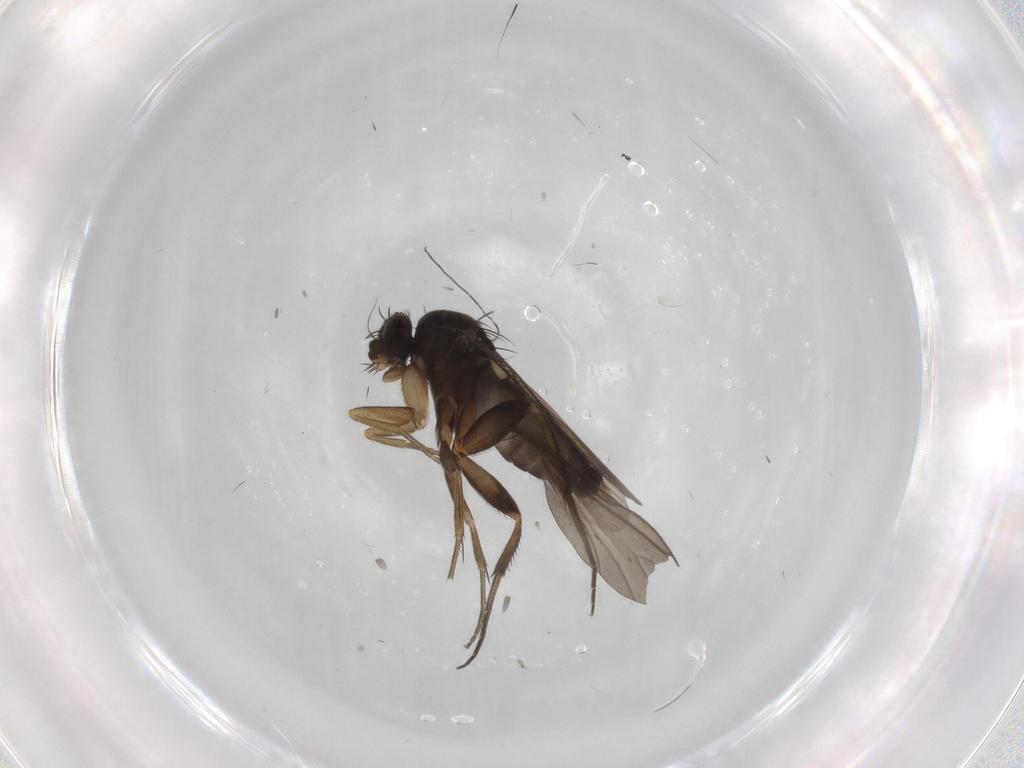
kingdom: Animalia
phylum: Arthropoda
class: Insecta
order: Diptera
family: Phoridae
